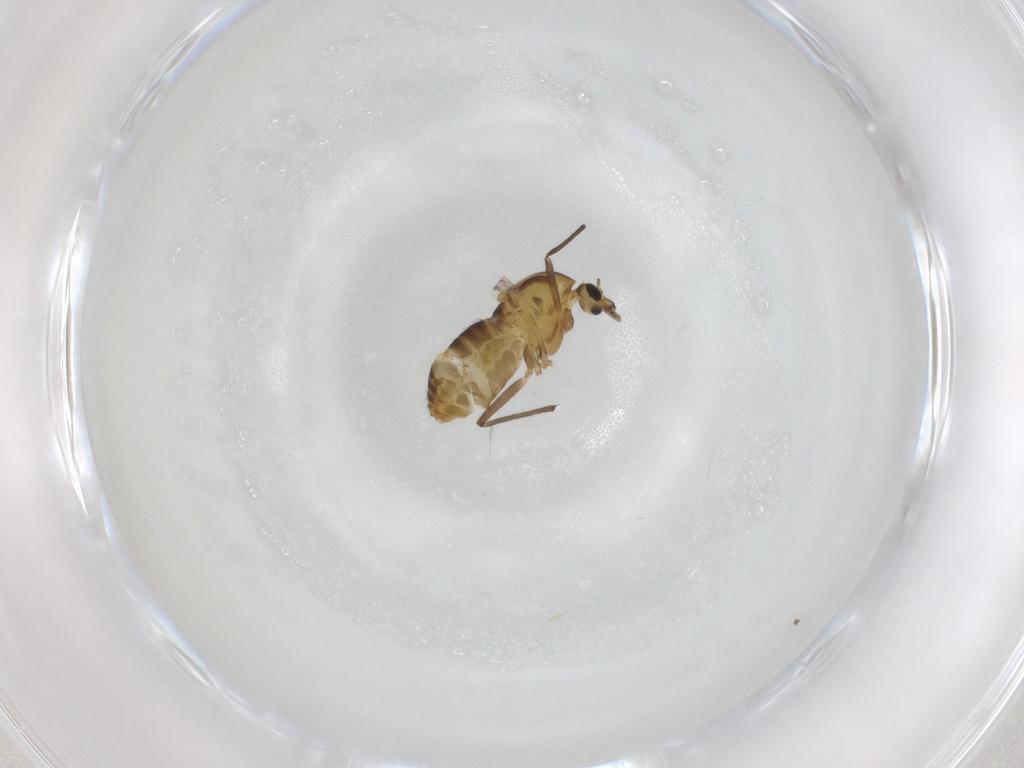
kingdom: Animalia
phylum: Arthropoda
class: Insecta
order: Diptera
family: Chironomidae
